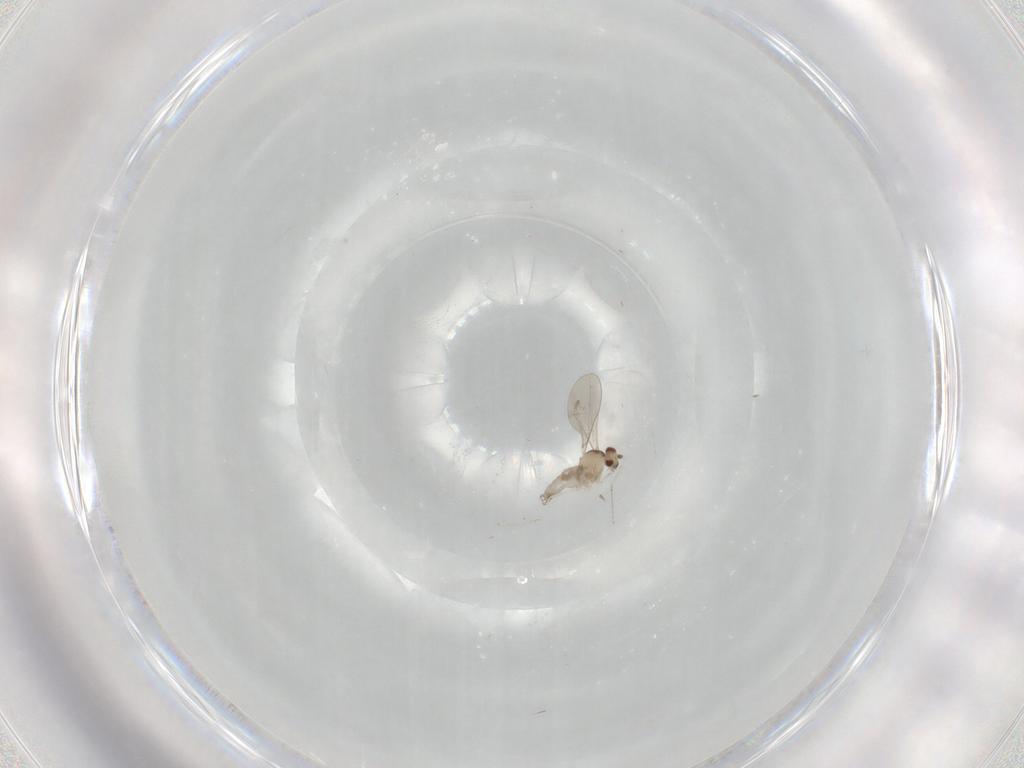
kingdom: Animalia
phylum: Arthropoda
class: Insecta
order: Diptera
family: Cecidomyiidae
